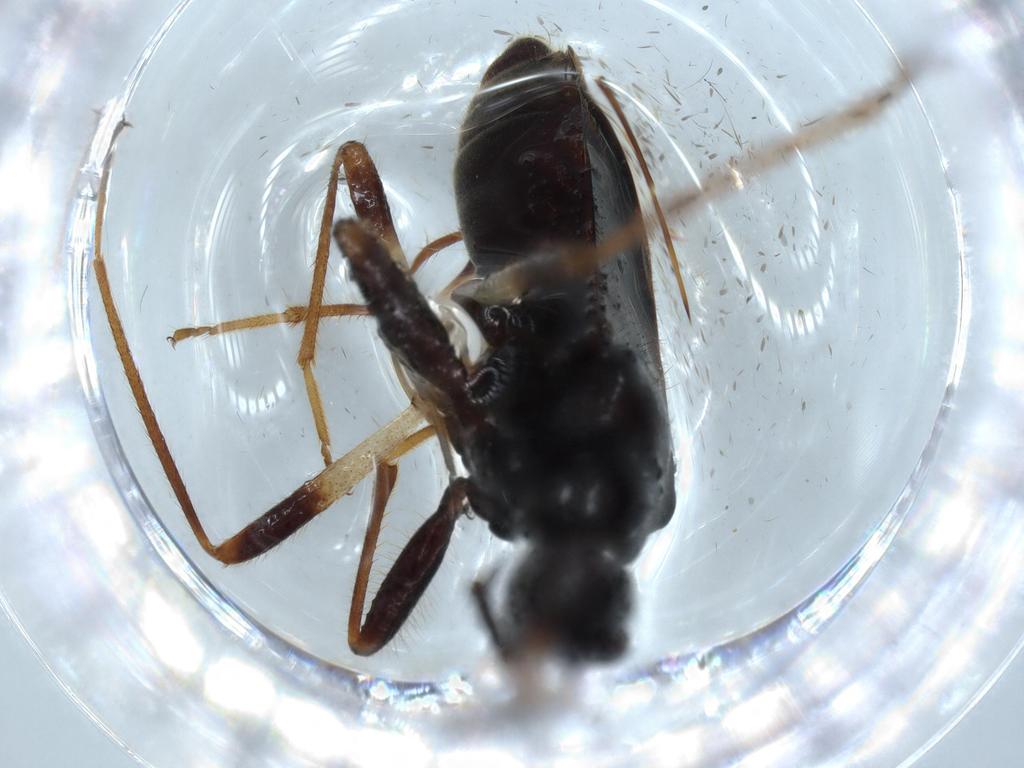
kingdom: Animalia
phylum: Arthropoda
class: Insecta
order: Hemiptera
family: Rhyparochromidae
